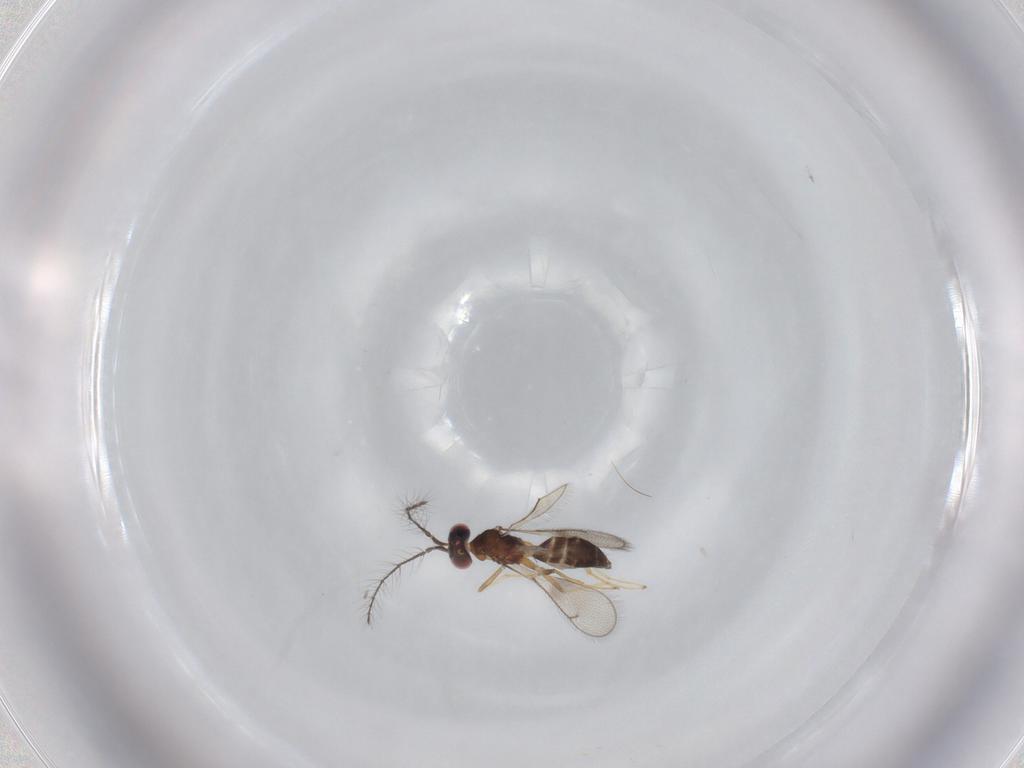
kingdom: Animalia
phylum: Arthropoda
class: Insecta
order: Hymenoptera
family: Eulophidae
